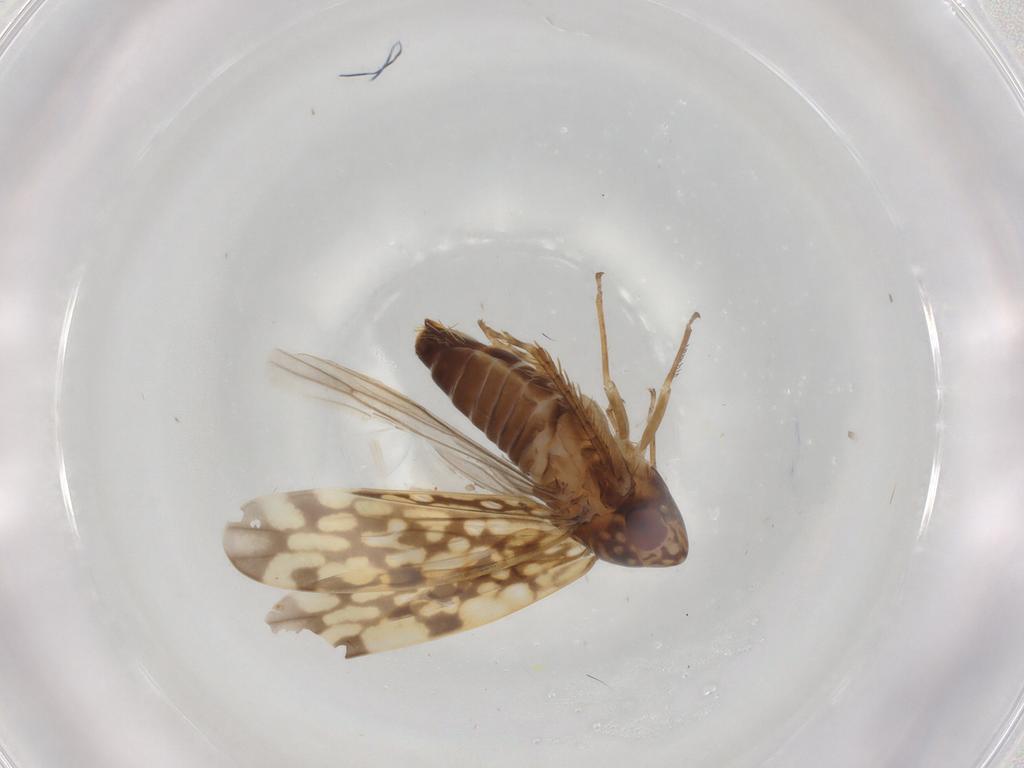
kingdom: Animalia
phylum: Arthropoda
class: Insecta
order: Hemiptera
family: Cicadellidae
